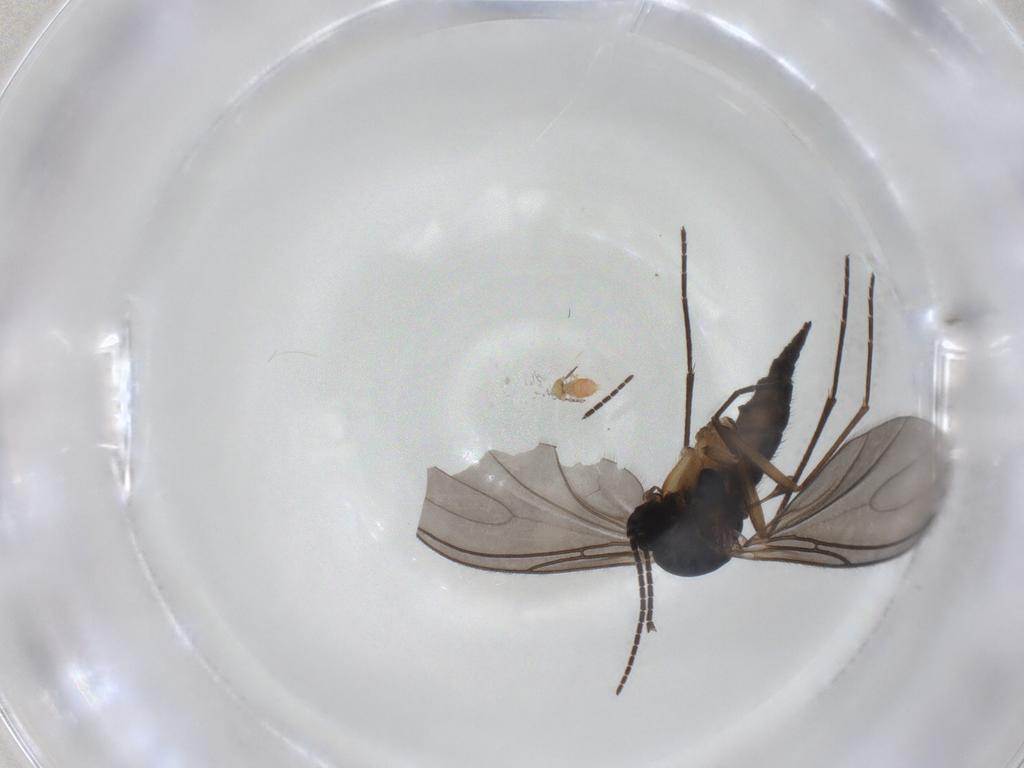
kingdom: Animalia
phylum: Arthropoda
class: Insecta
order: Diptera
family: Sciaridae
